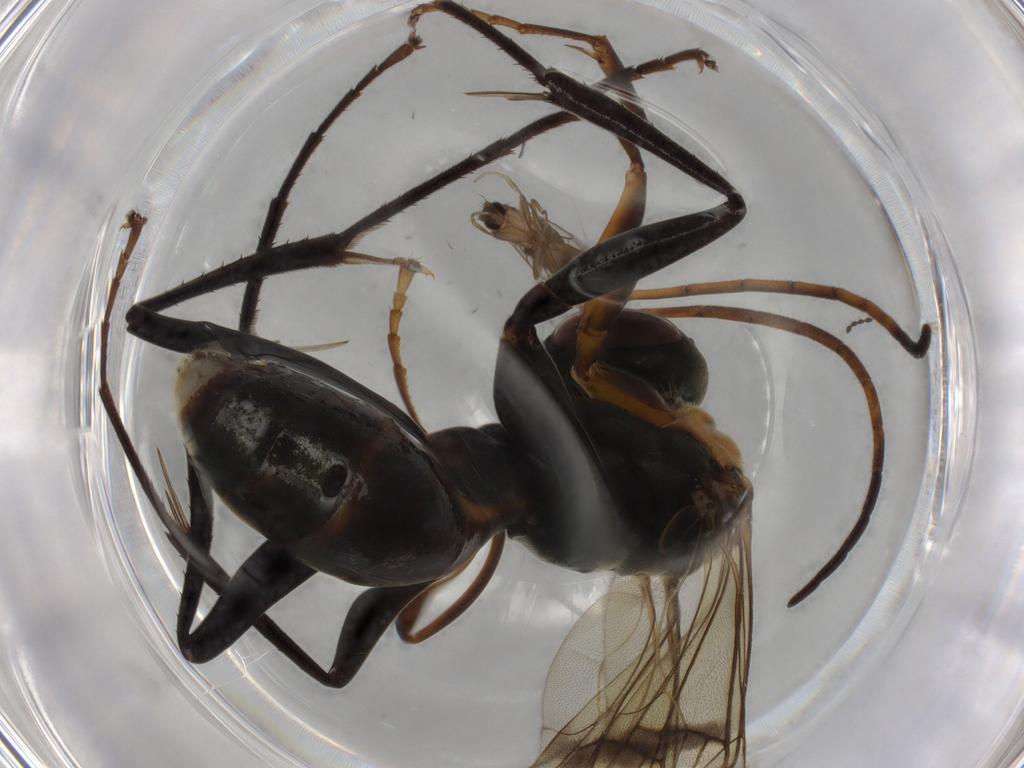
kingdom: Animalia
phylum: Arthropoda
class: Insecta
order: Hymenoptera
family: Pompilidae
